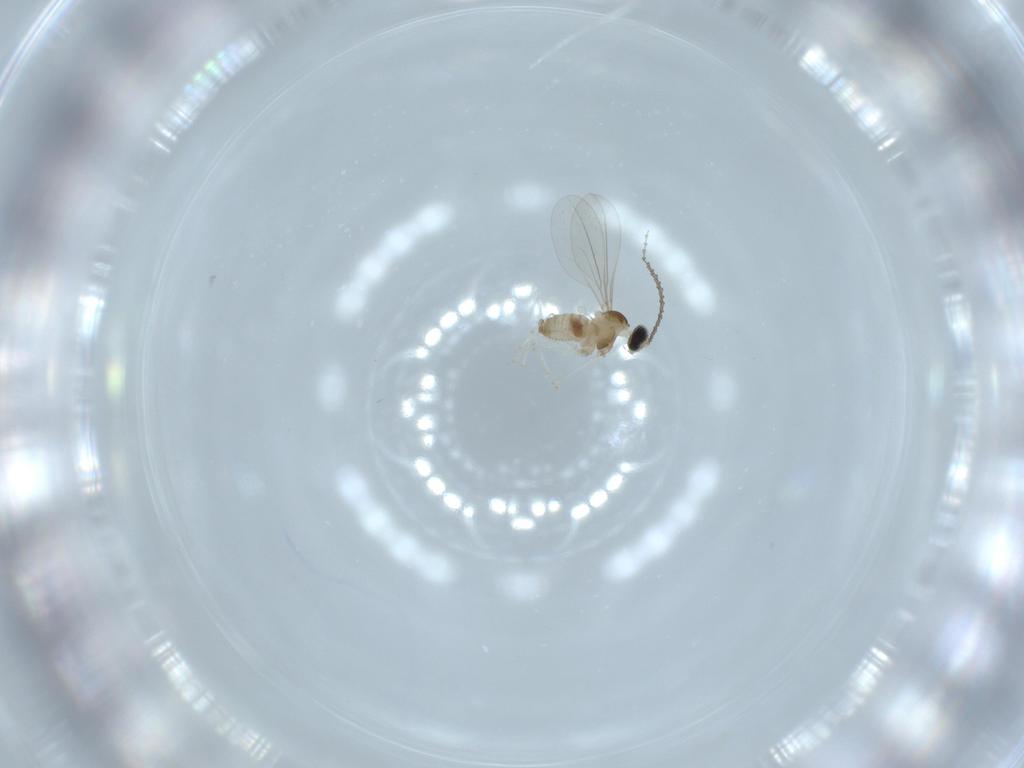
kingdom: Animalia
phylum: Arthropoda
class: Insecta
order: Diptera
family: Cecidomyiidae
